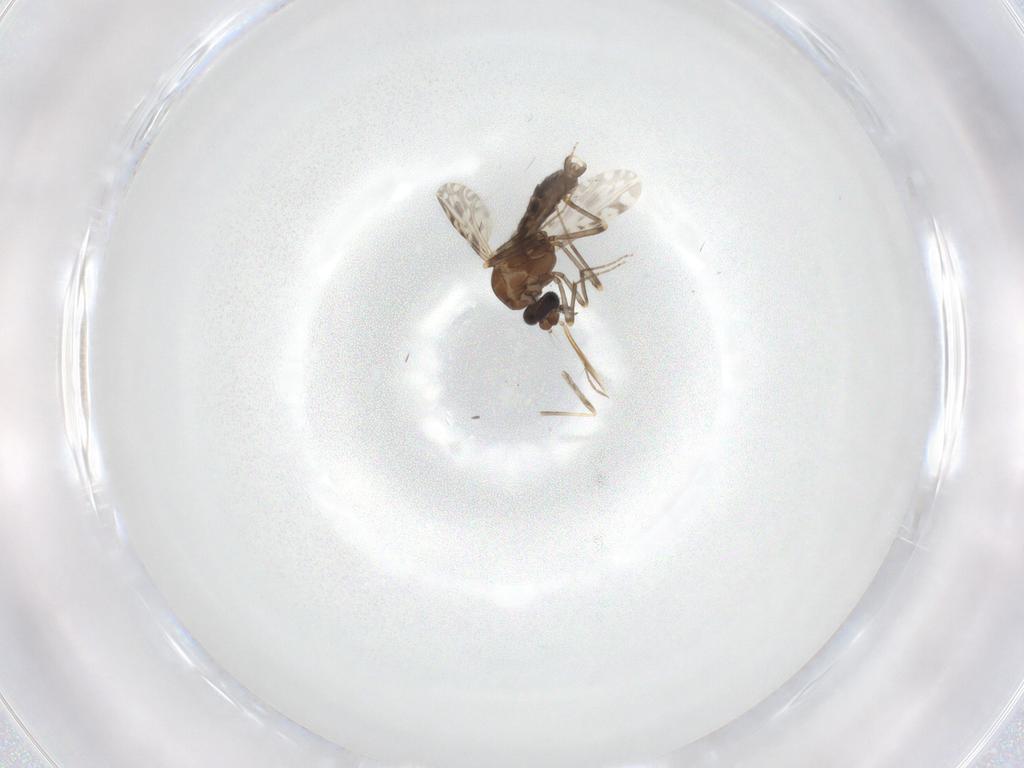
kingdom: Animalia
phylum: Arthropoda
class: Insecta
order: Diptera
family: Ceratopogonidae
